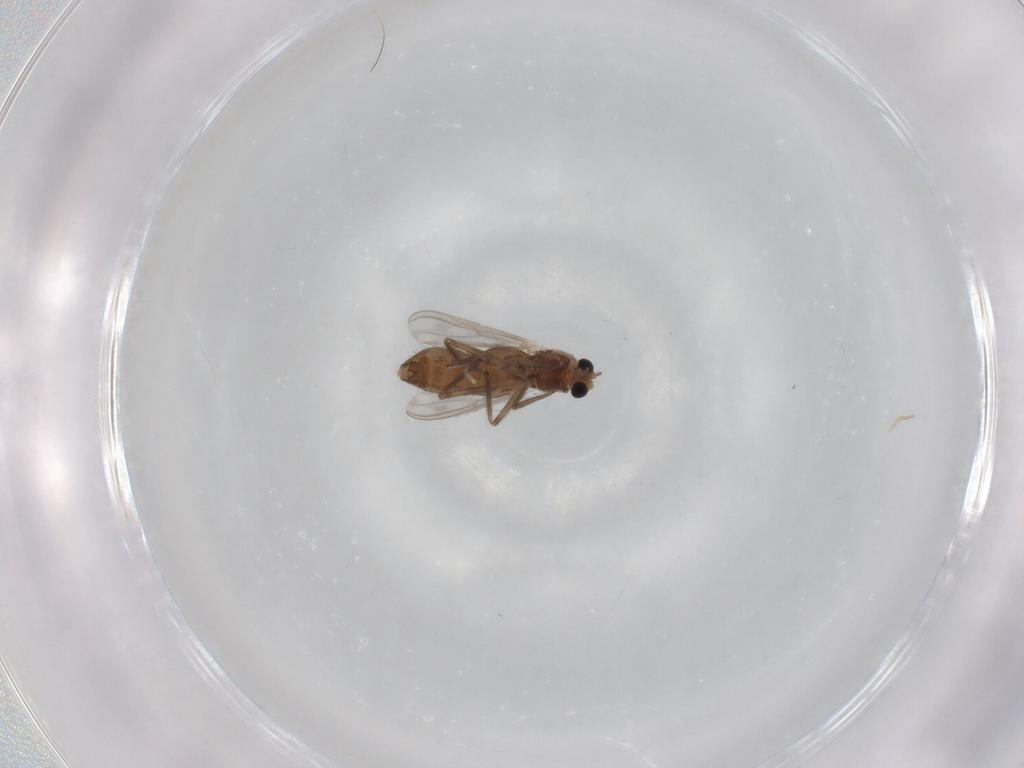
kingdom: Animalia
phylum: Arthropoda
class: Insecta
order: Diptera
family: Chironomidae
